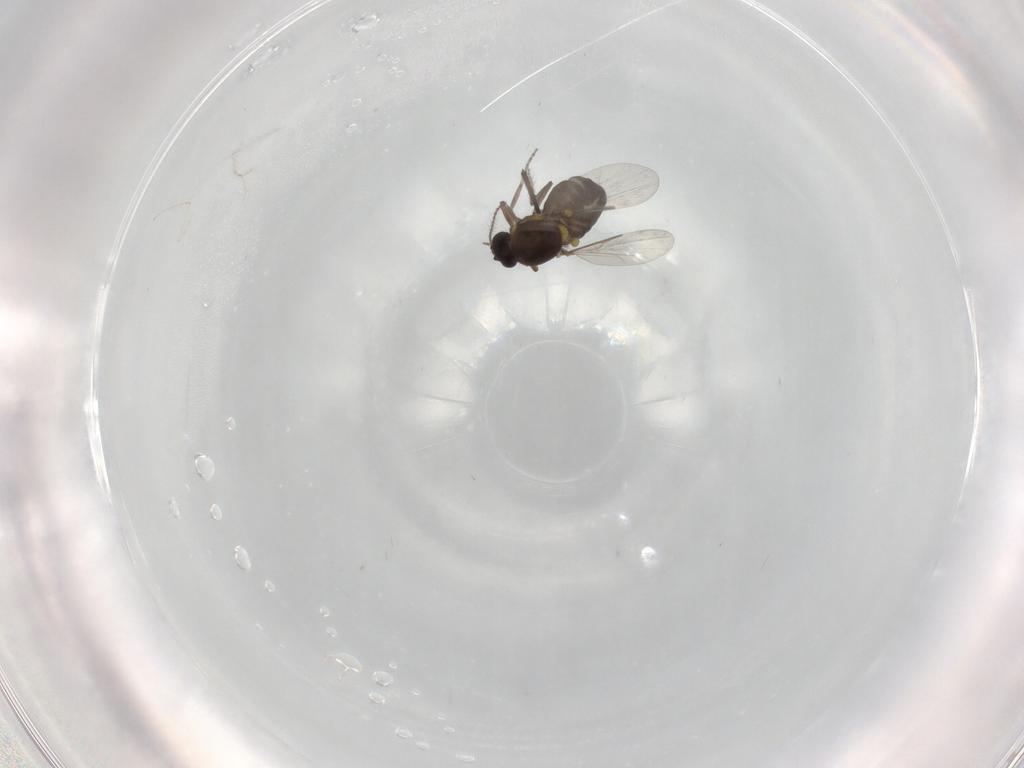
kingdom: Animalia
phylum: Arthropoda
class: Insecta
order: Diptera
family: Ceratopogonidae
